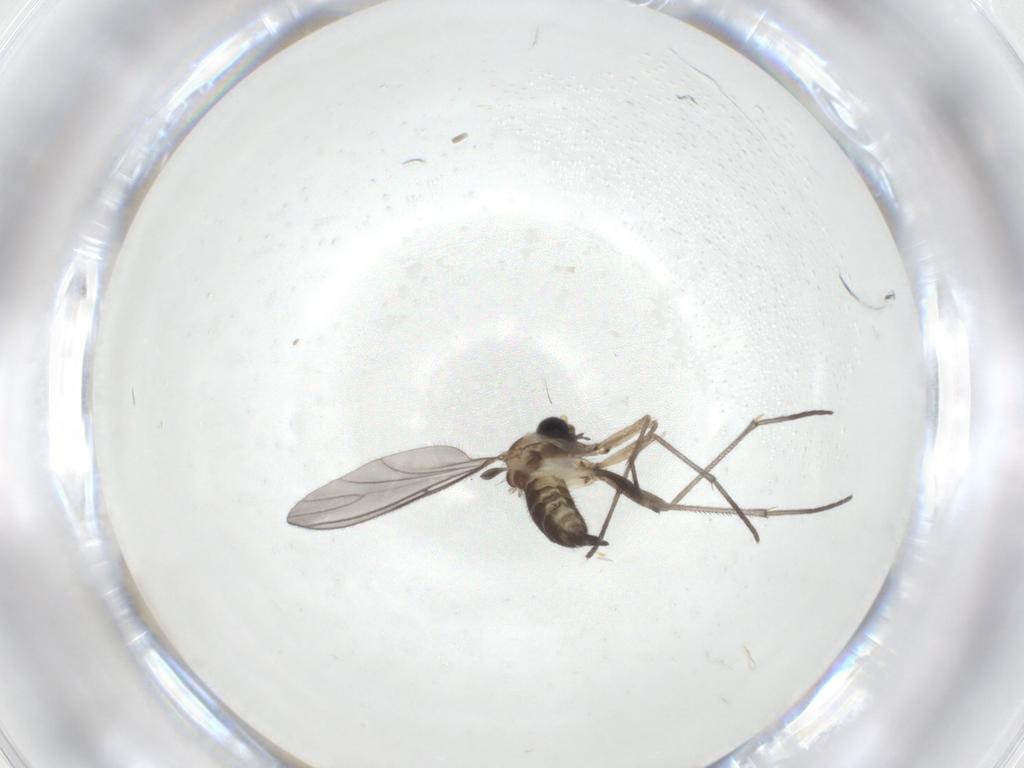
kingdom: Animalia
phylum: Arthropoda
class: Insecta
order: Diptera
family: Sciaridae
